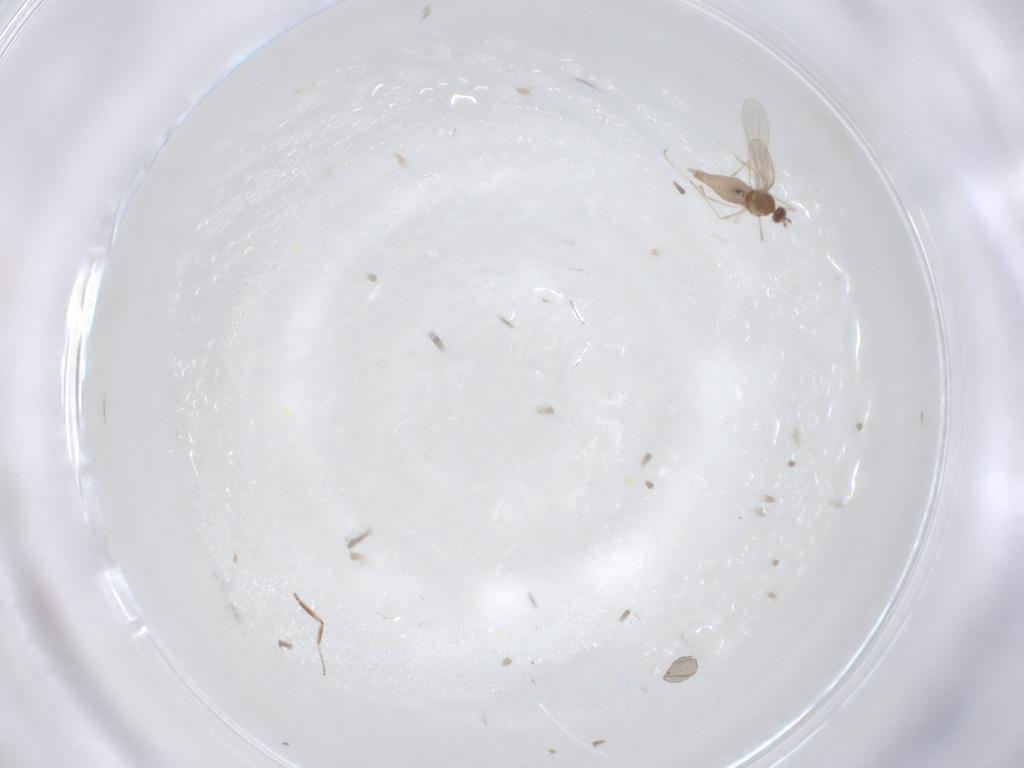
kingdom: Animalia
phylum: Arthropoda
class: Insecta
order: Diptera
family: Cecidomyiidae
